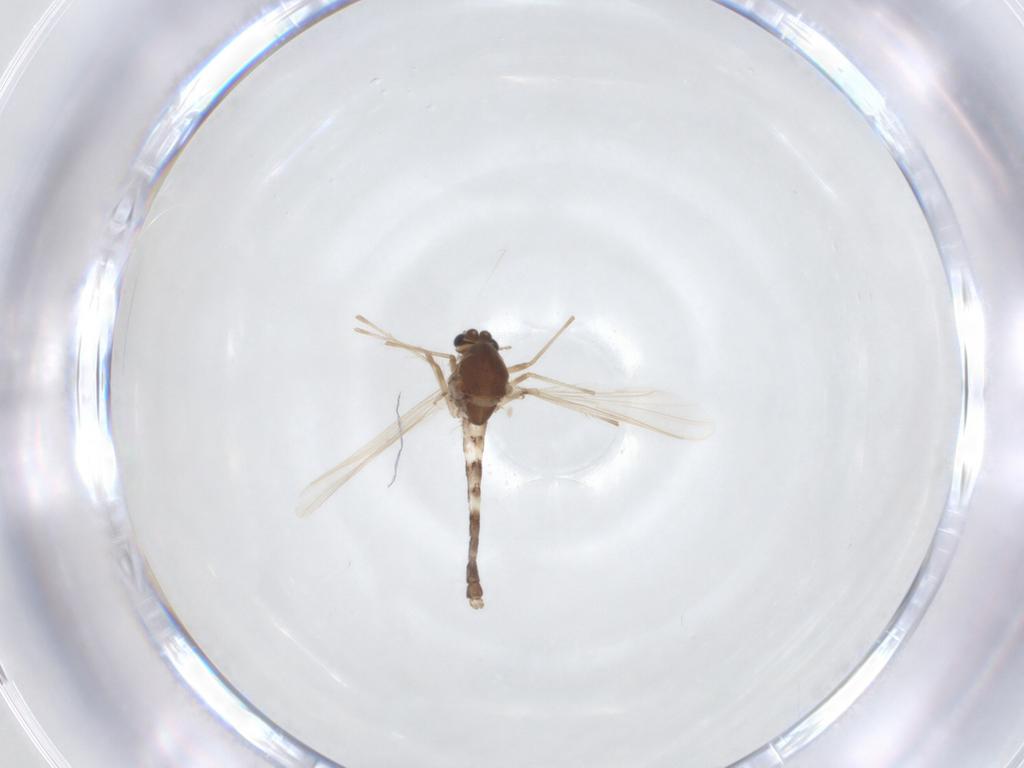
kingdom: Animalia
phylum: Arthropoda
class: Insecta
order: Diptera
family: Chironomidae
